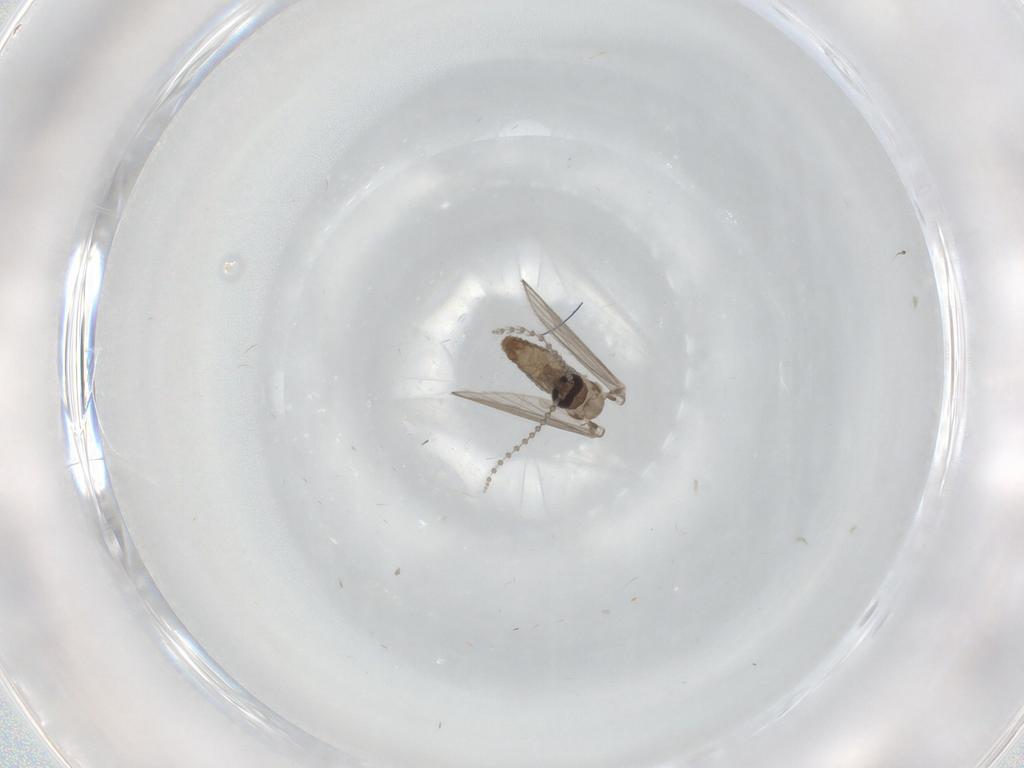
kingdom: Animalia
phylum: Arthropoda
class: Insecta
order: Diptera
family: Psychodidae
